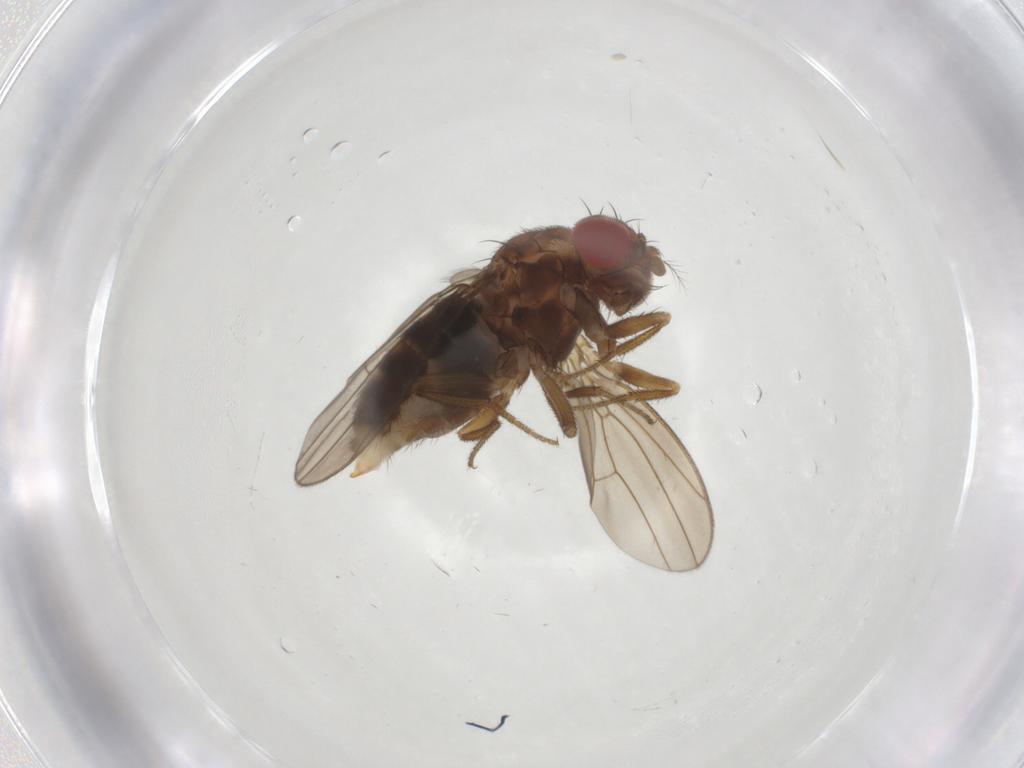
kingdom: Animalia
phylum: Arthropoda
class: Insecta
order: Diptera
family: Drosophilidae
